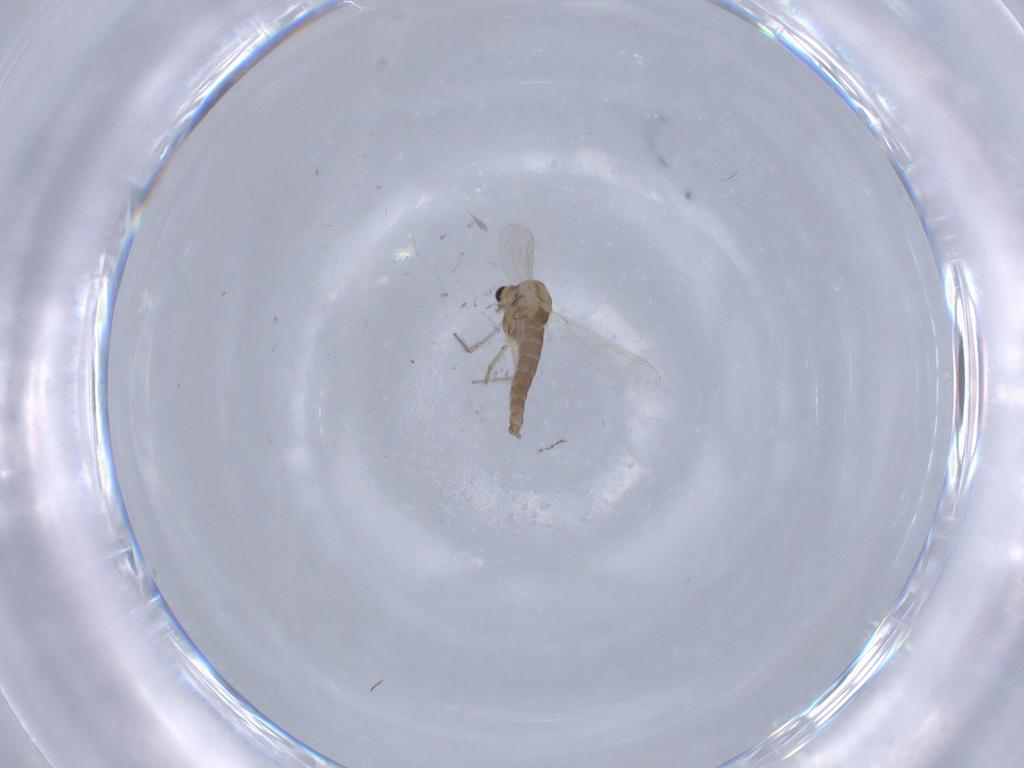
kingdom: Animalia
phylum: Arthropoda
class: Insecta
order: Diptera
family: Chironomidae
